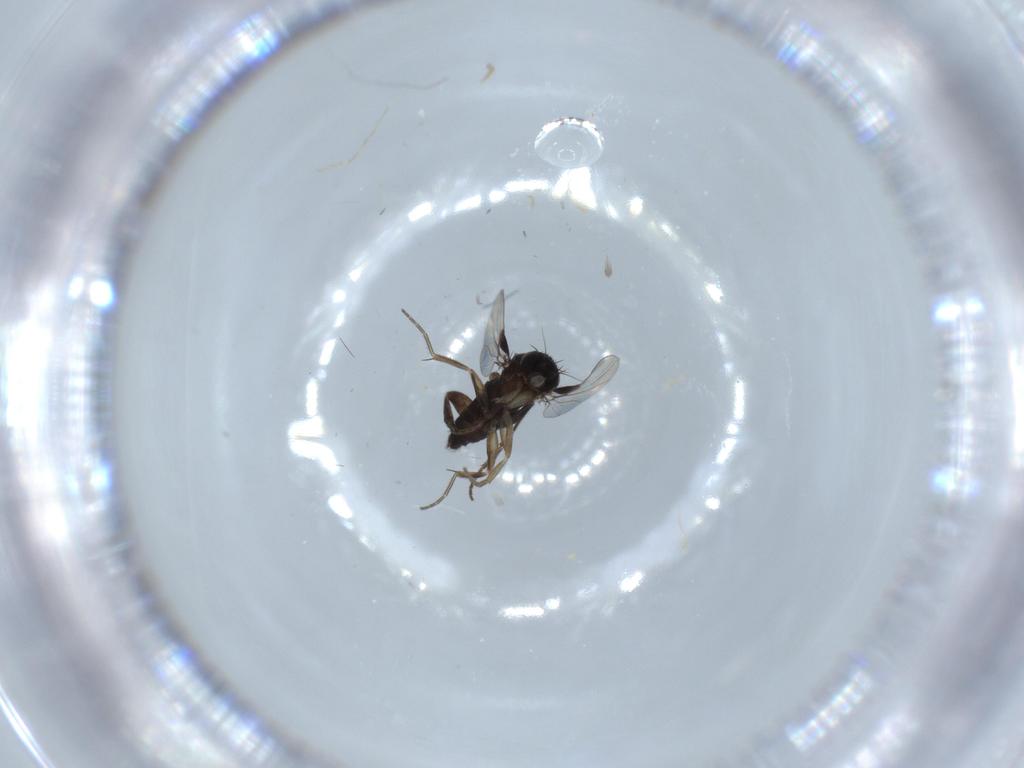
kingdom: Animalia
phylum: Arthropoda
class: Insecta
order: Diptera
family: Phoridae
